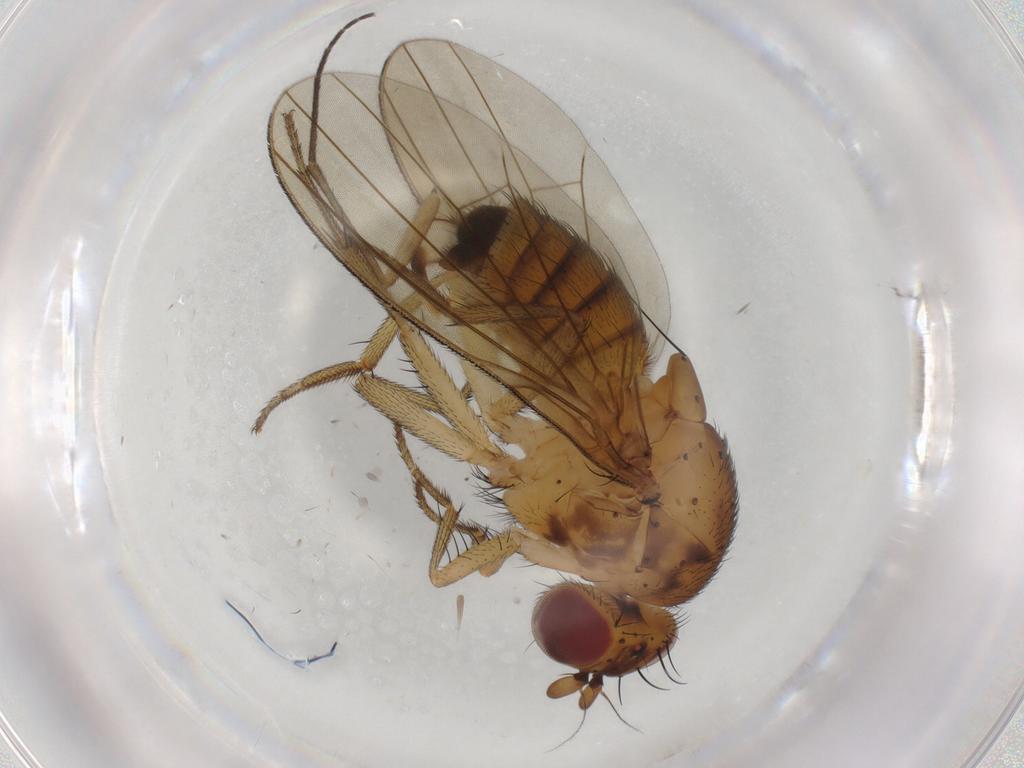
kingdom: Animalia
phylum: Arthropoda
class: Insecta
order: Diptera
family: Sciaridae
